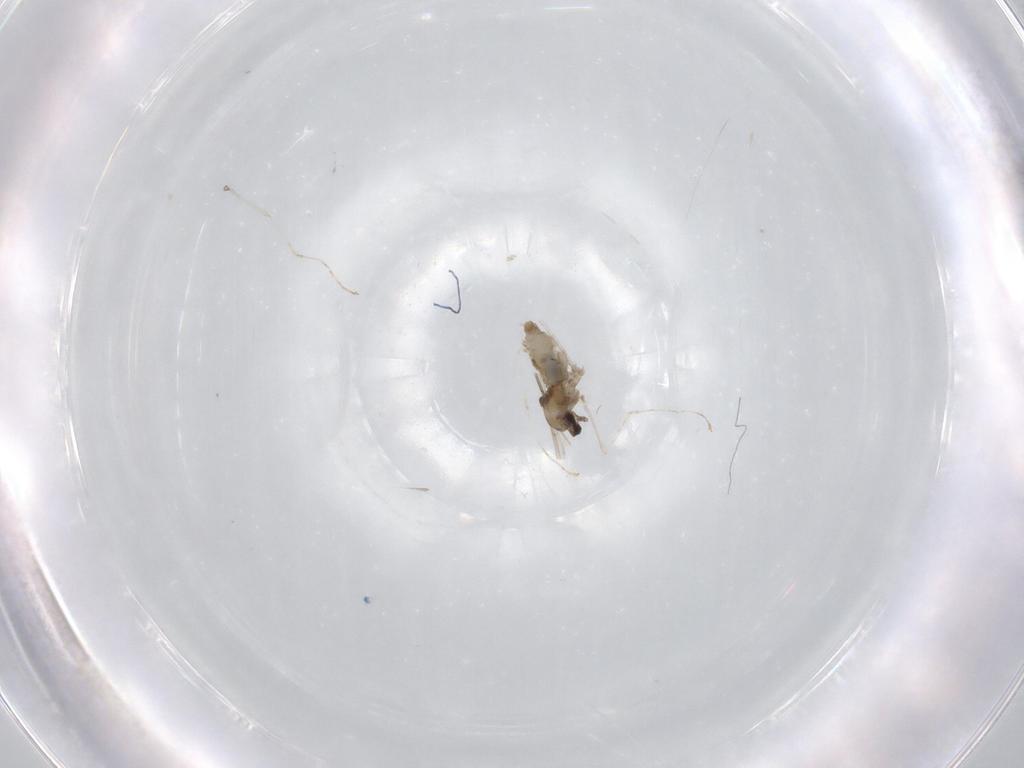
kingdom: Animalia
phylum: Arthropoda
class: Insecta
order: Diptera
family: Cecidomyiidae
